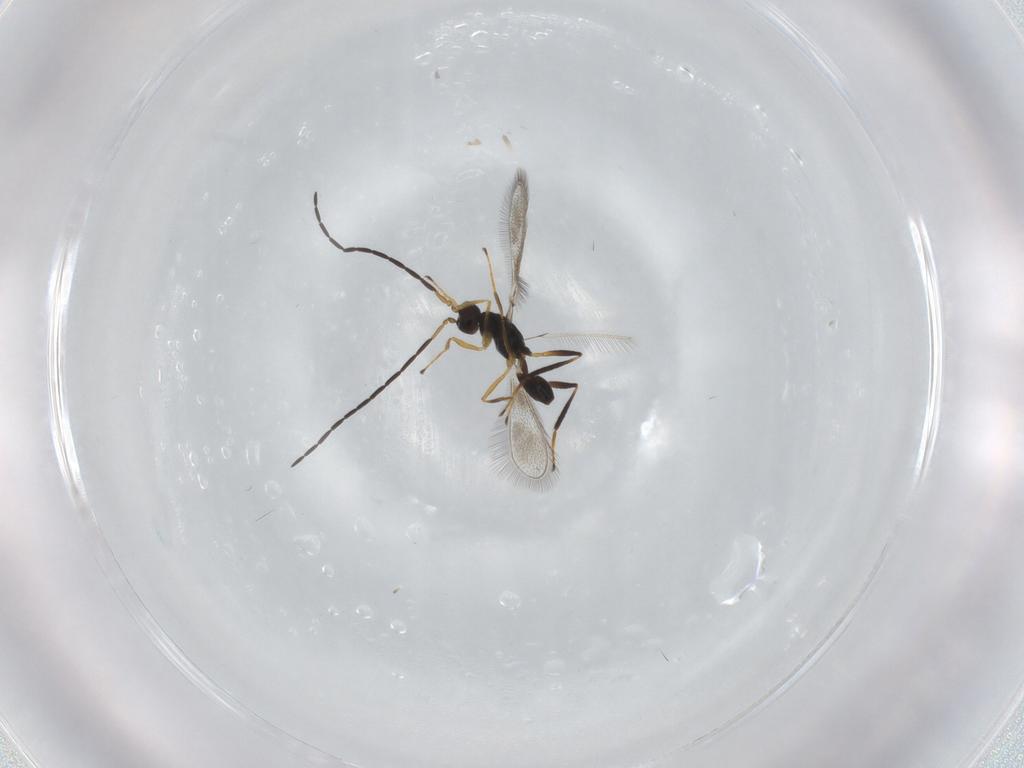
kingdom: Animalia
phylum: Arthropoda
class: Insecta
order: Hymenoptera
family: Mymaridae
